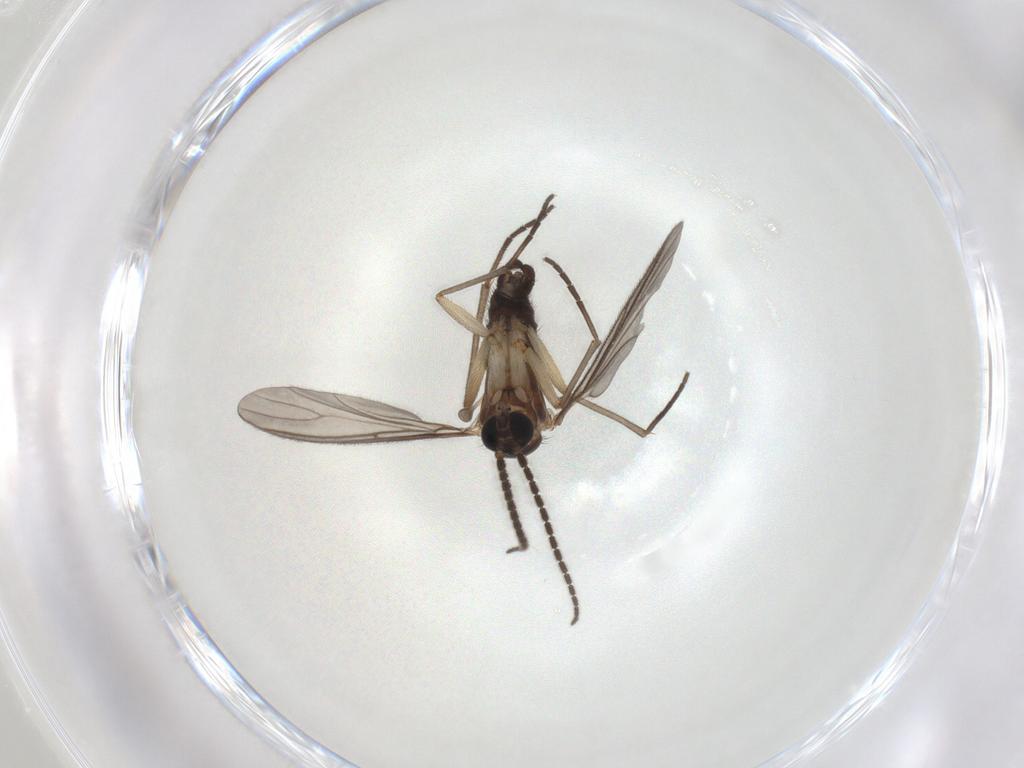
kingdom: Animalia
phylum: Arthropoda
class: Insecta
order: Diptera
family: Sciaridae
